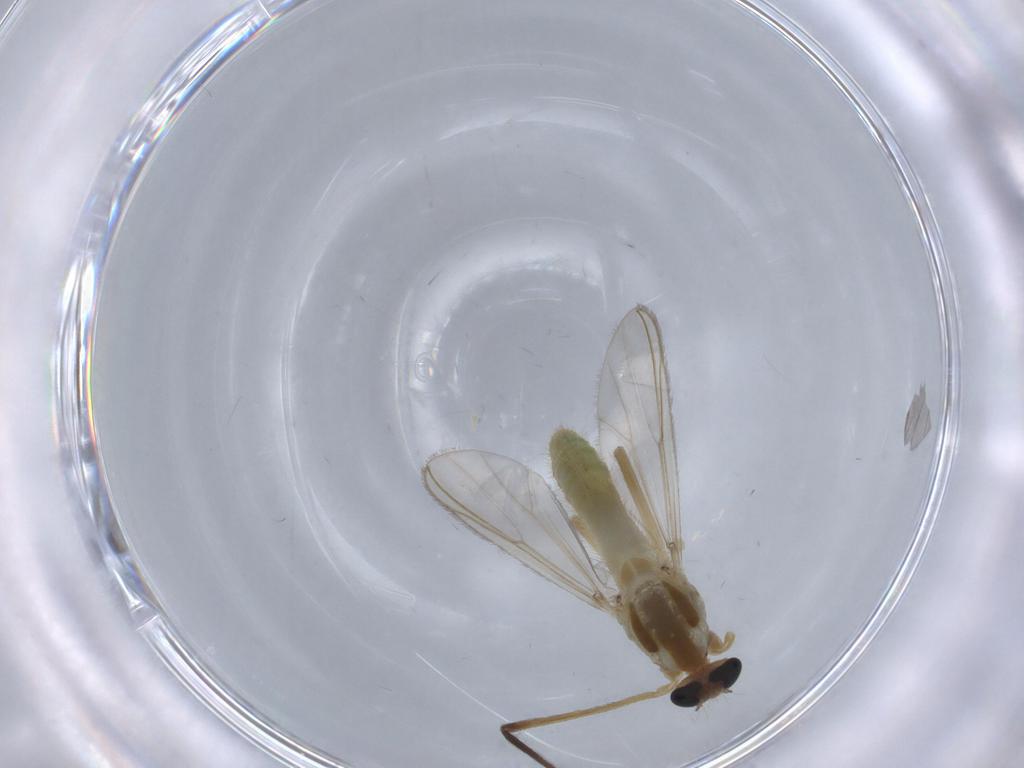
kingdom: Animalia
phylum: Arthropoda
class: Insecta
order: Diptera
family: Chironomidae
